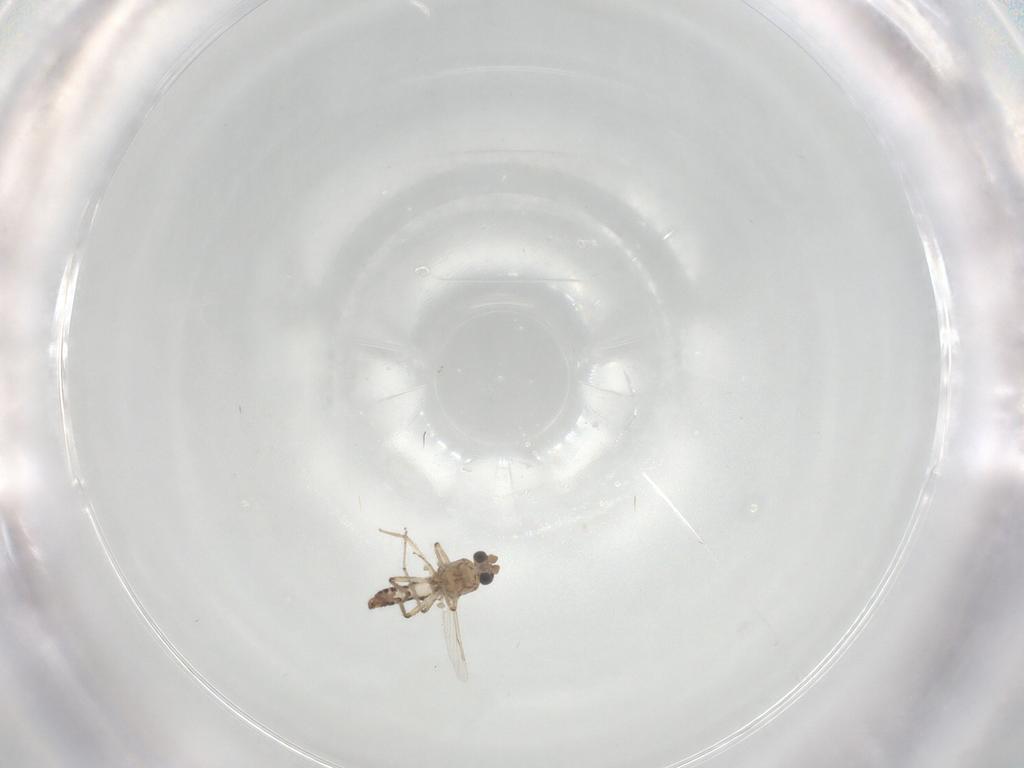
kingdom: Animalia
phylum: Arthropoda
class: Insecta
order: Diptera
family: Ceratopogonidae
